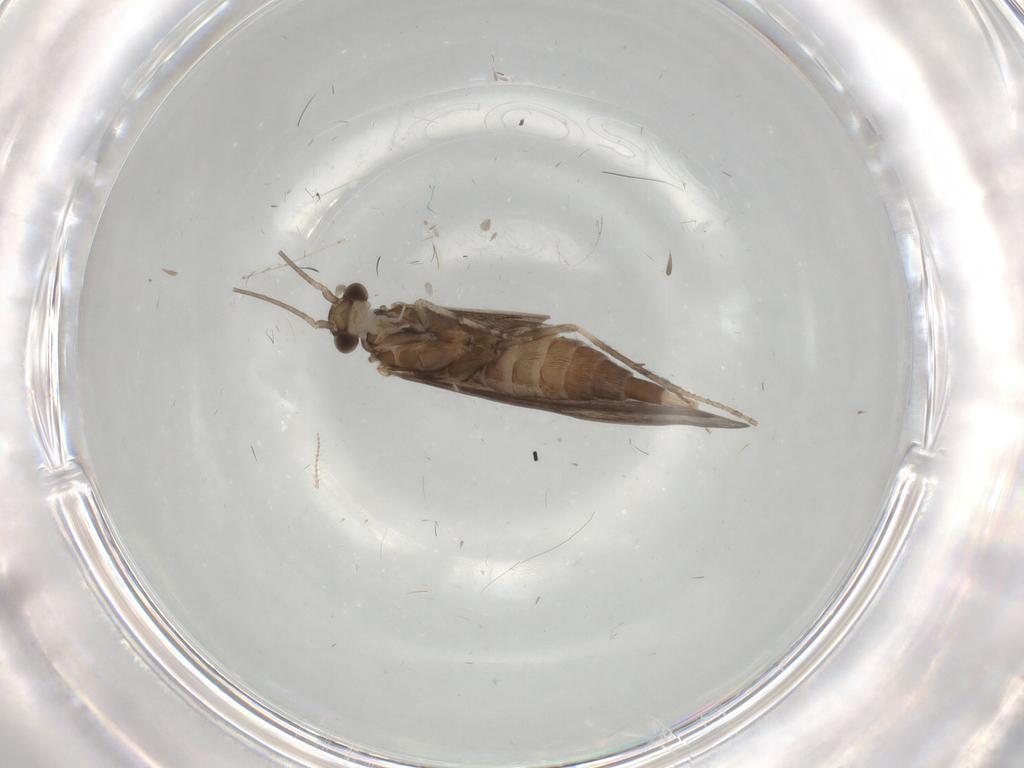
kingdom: Animalia
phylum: Arthropoda
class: Insecta
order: Trichoptera
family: Xiphocentronidae
